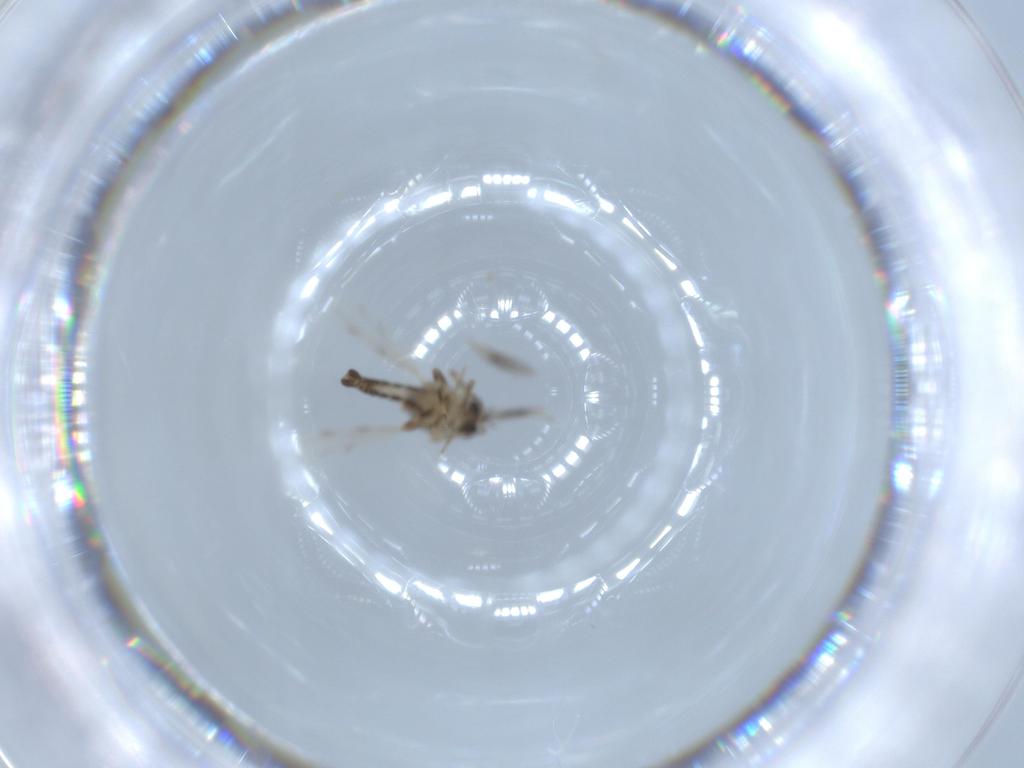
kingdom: Animalia
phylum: Arthropoda
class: Insecta
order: Diptera
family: Ceratopogonidae
